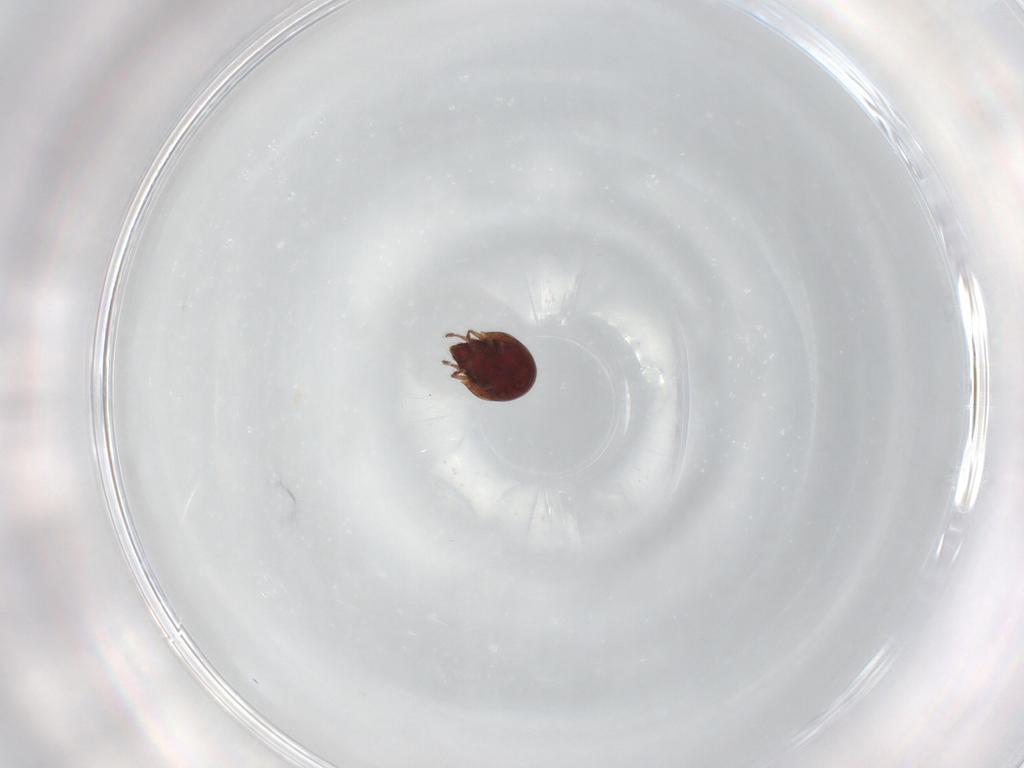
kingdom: Animalia
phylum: Arthropoda
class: Arachnida
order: Sarcoptiformes
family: Ceratozetidae
